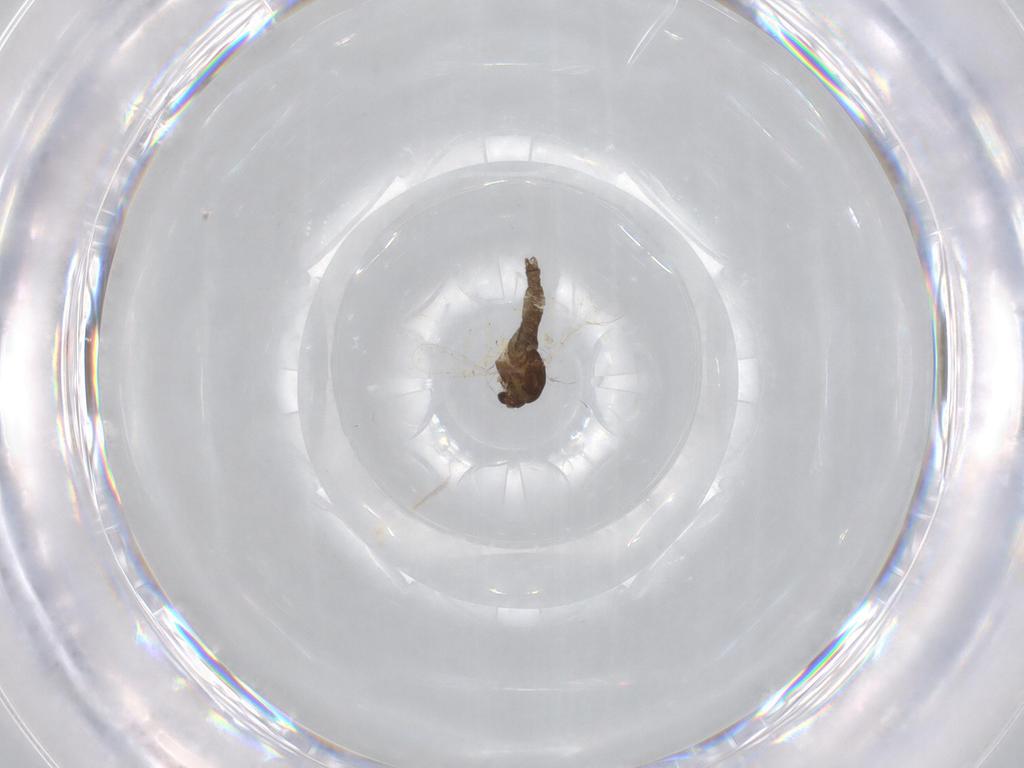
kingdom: Animalia
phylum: Arthropoda
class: Insecta
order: Diptera
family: Chironomidae
